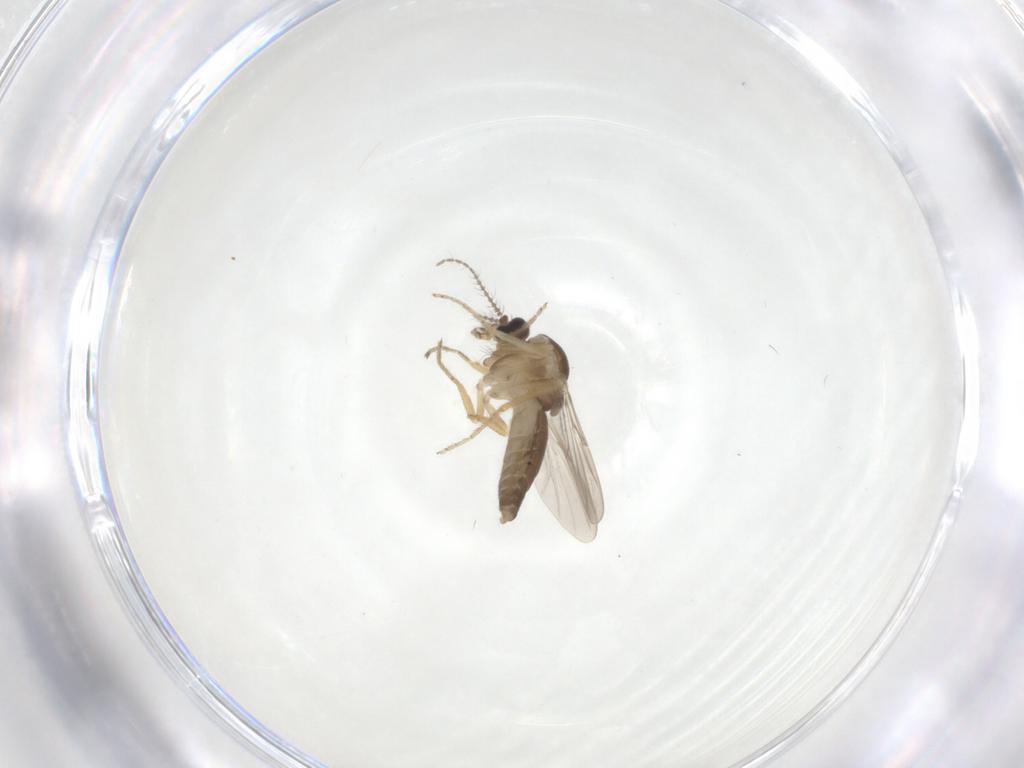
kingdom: Animalia
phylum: Arthropoda
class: Insecta
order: Diptera
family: Ceratopogonidae
